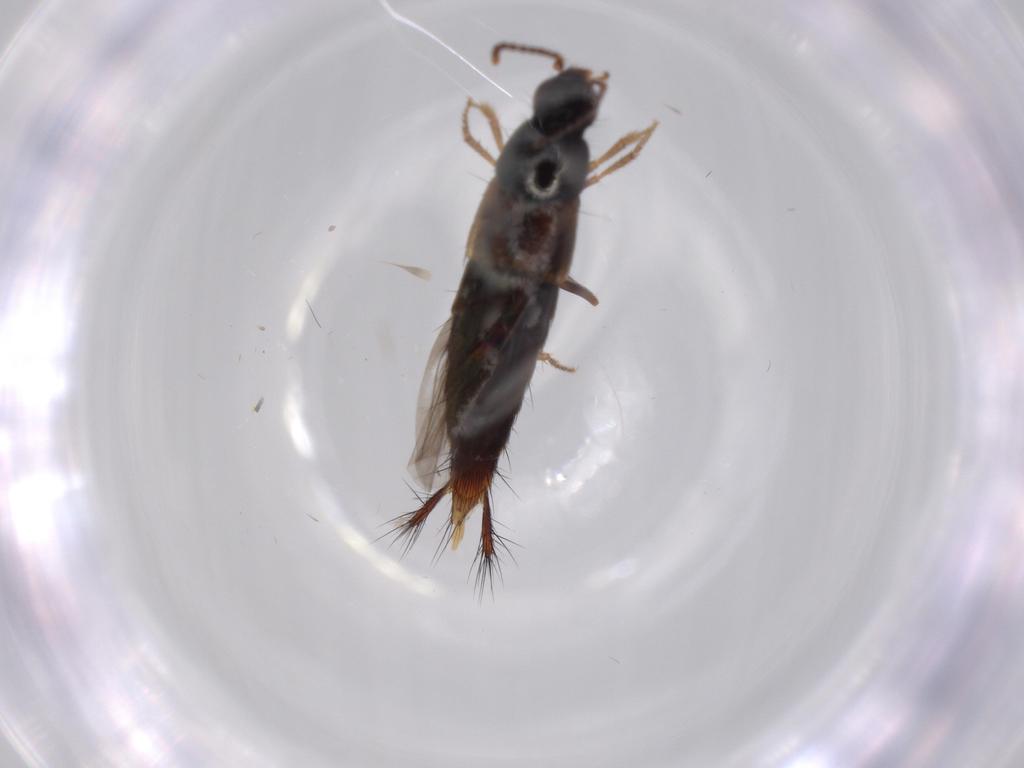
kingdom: Animalia
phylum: Arthropoda
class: Insecta
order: Coleoptera
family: Staphylinidae
